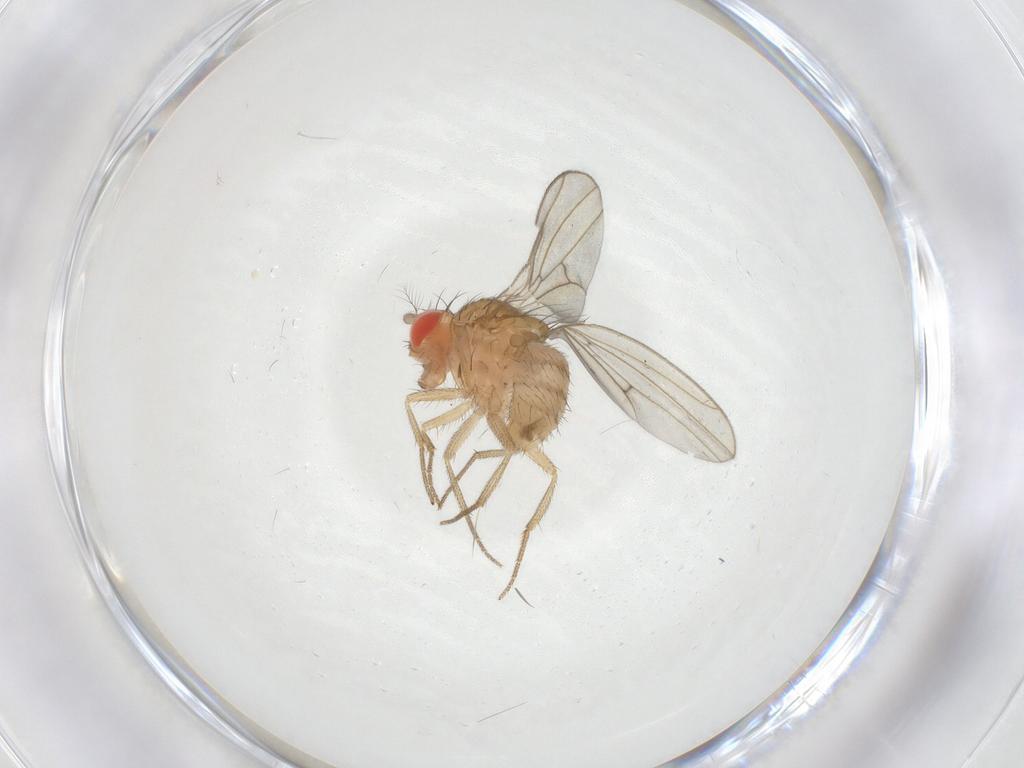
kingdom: Animalia
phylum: Arthropoda
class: Insecta
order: Diptera
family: Drosophilidae
